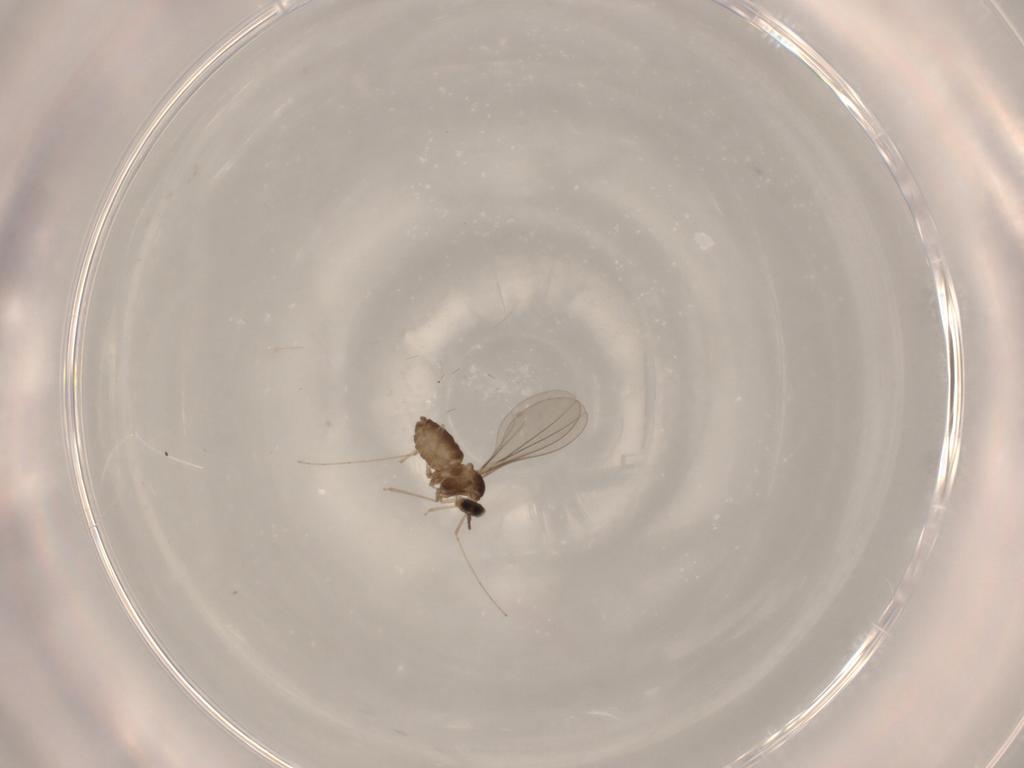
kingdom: Animalia
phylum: Arthropoda
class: Insecta
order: Diptera
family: Cecidomyiidae
